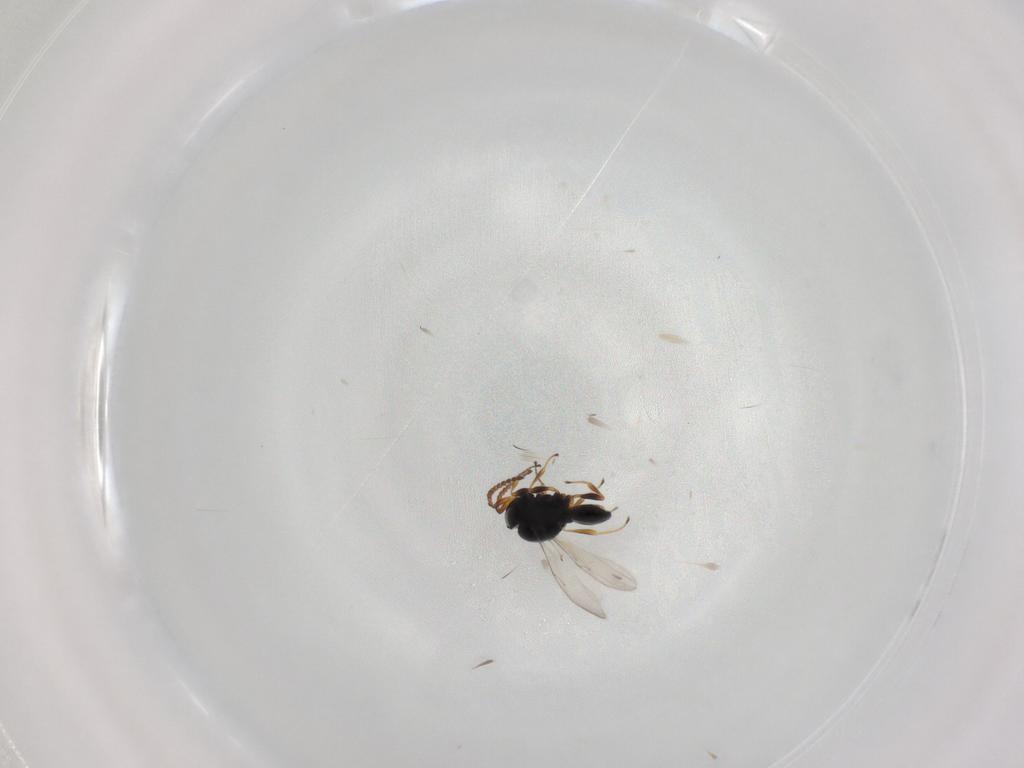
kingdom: Animalia
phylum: Arthropoda
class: Insecta
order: Hymenoptera
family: Scelionidae
